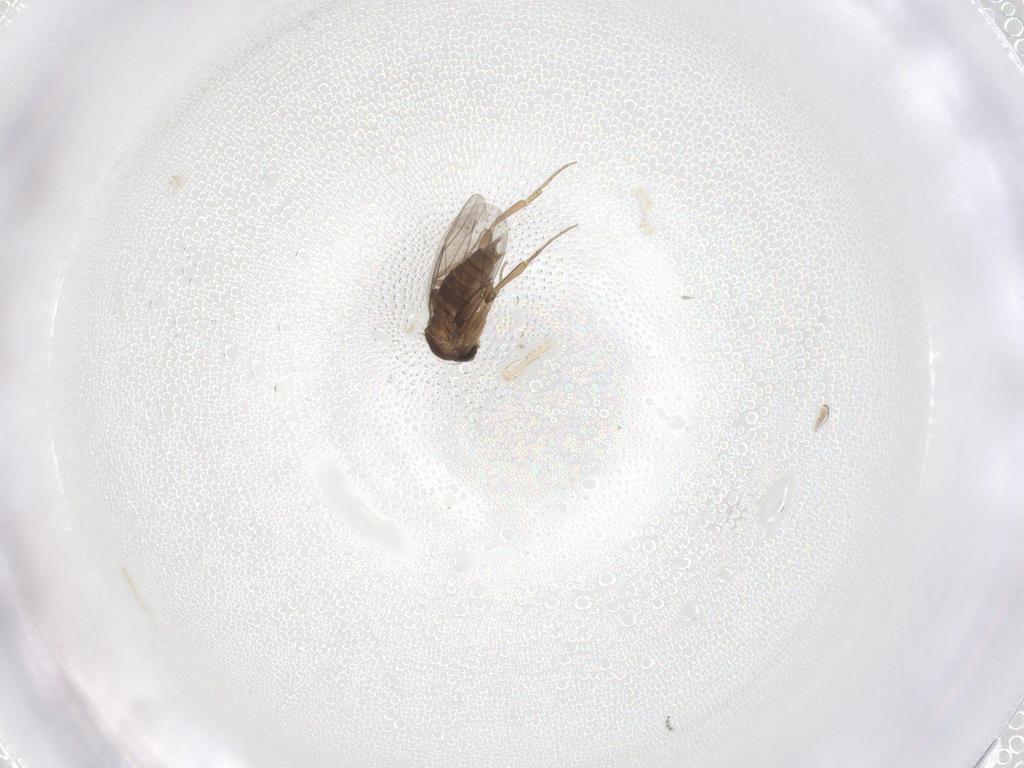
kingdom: Animalia
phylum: Arthropoda
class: Insecta
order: Diptera
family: Phoridae
